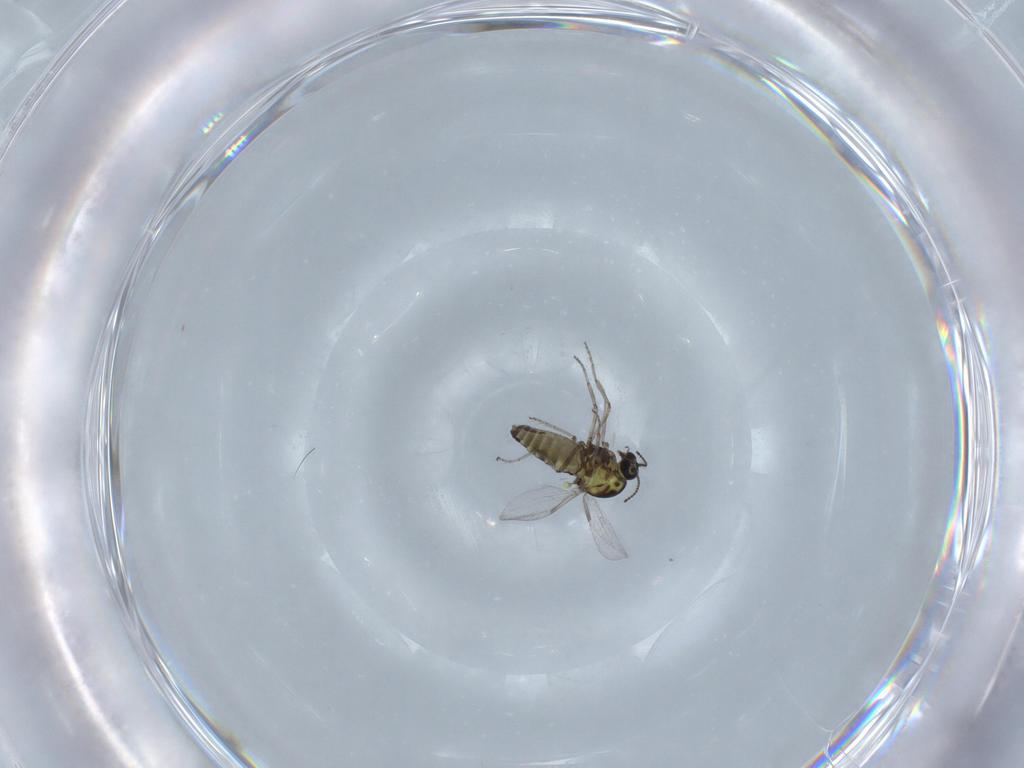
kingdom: Animalia
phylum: Arthropoda
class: Insecta
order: Diptera
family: Ceratopogonidae
